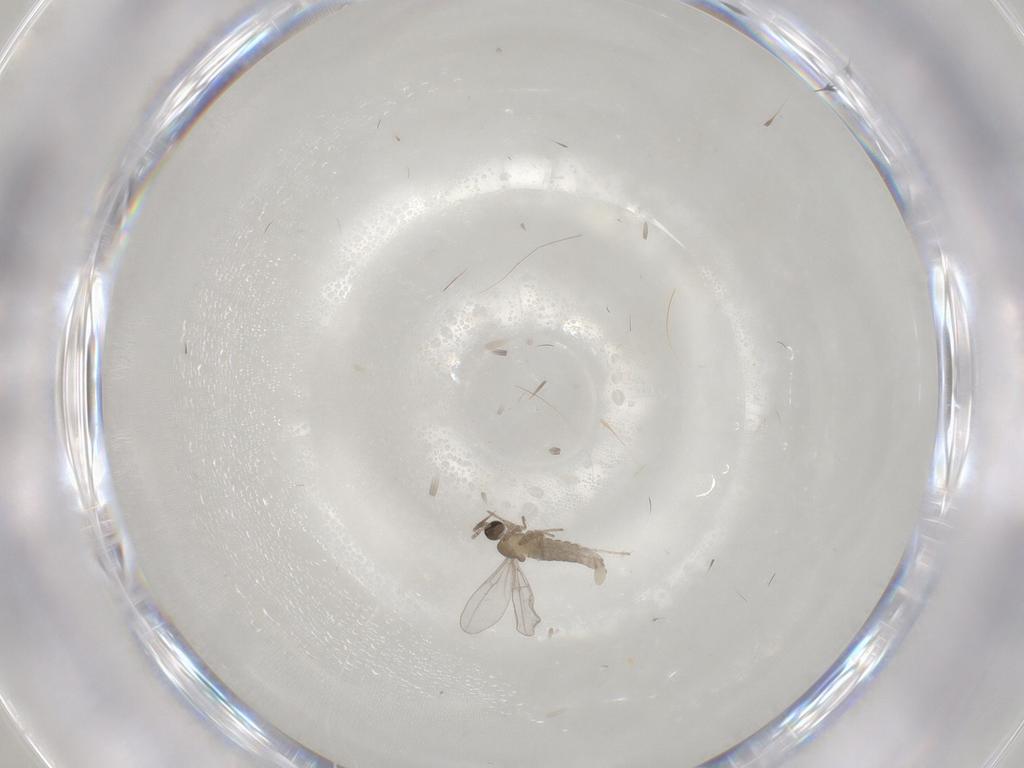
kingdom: Animalia
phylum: Arthropoda
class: Insecta
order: Diptera
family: Ceratopogonidae
